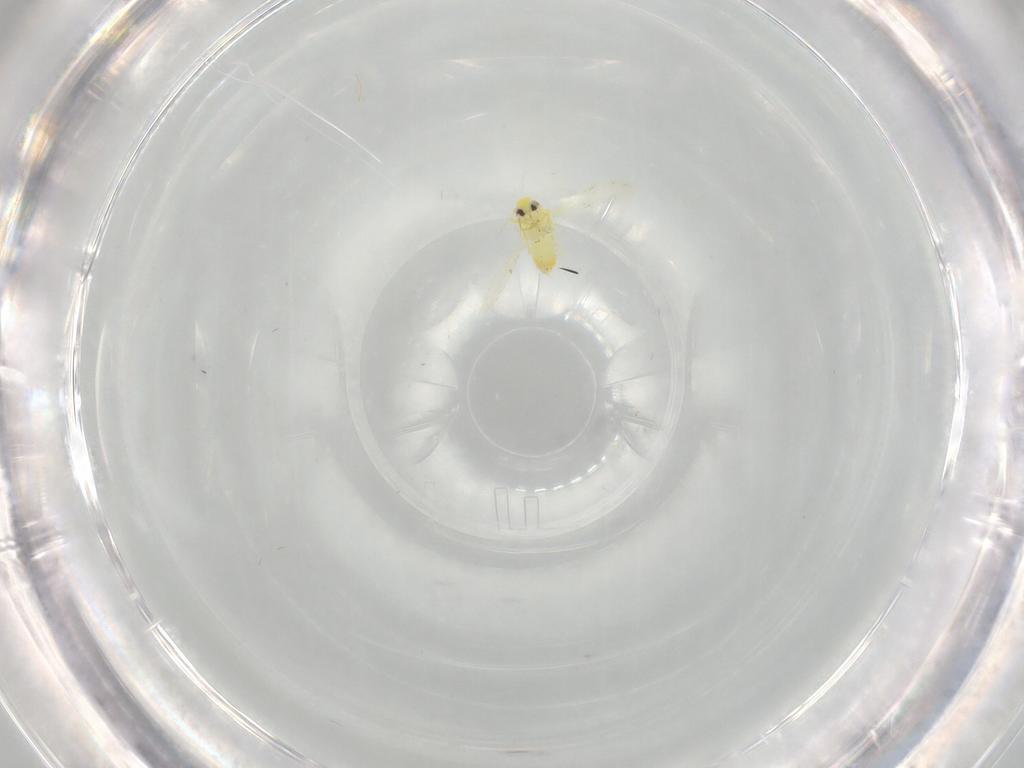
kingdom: Animalia
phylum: Arthropoda
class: Insecta
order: Hemiptera
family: Aleyrodidae
